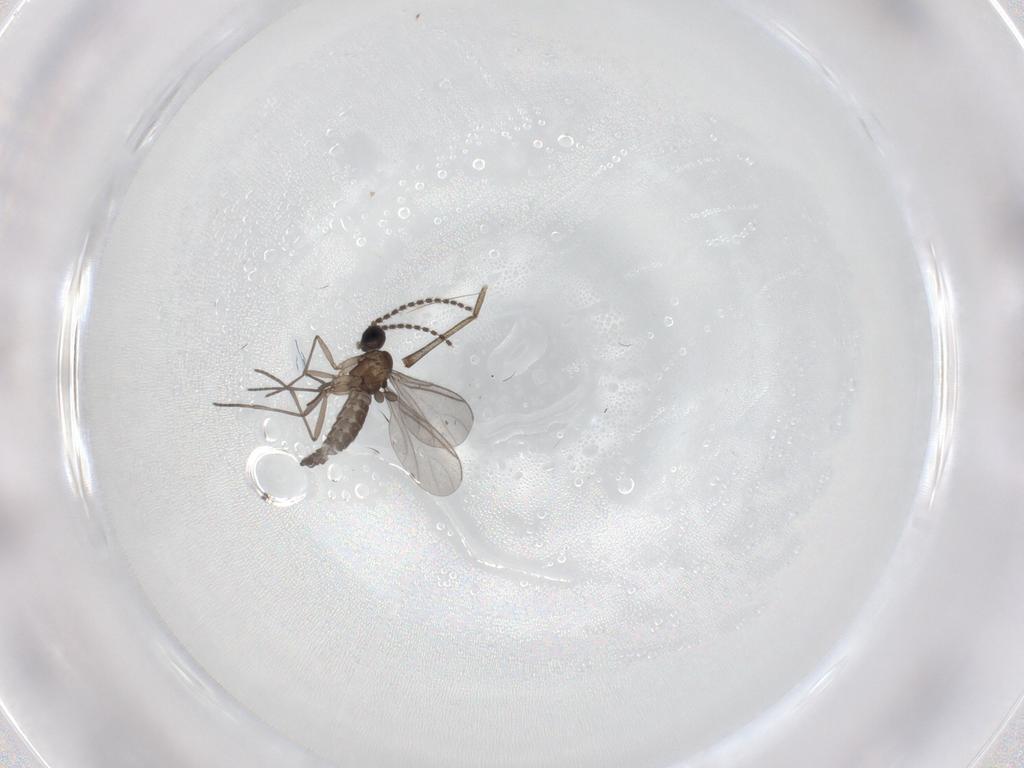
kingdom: Animalia
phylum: Arthropoda
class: Insecta
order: Diptera
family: Sciaridae
